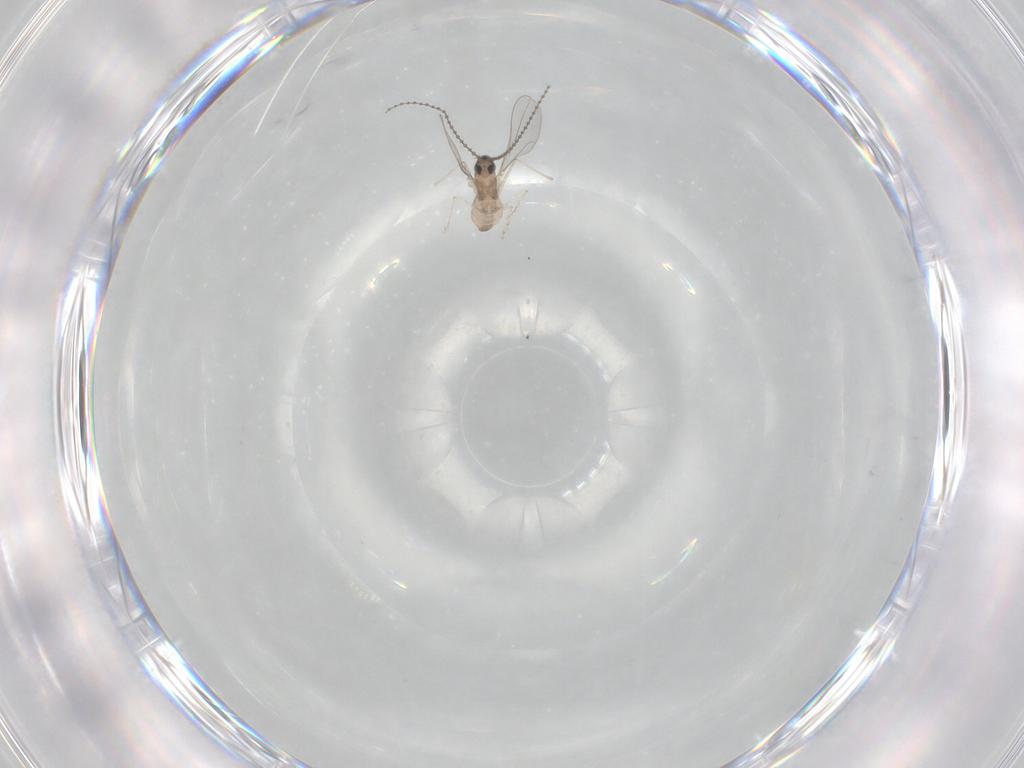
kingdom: Animalia
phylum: Arthropoda
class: Insecta
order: Diptera
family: Cecidomyiidae
